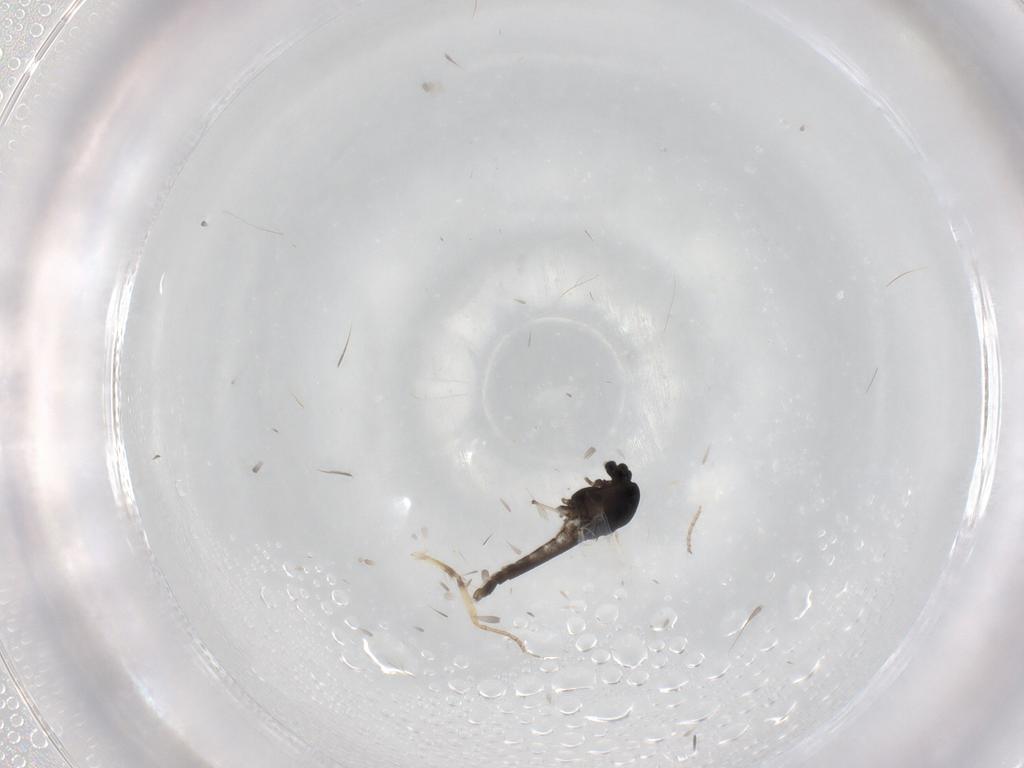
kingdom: Animalia
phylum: Arthropoda
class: Insecta
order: Diptera
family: Chironomidae
